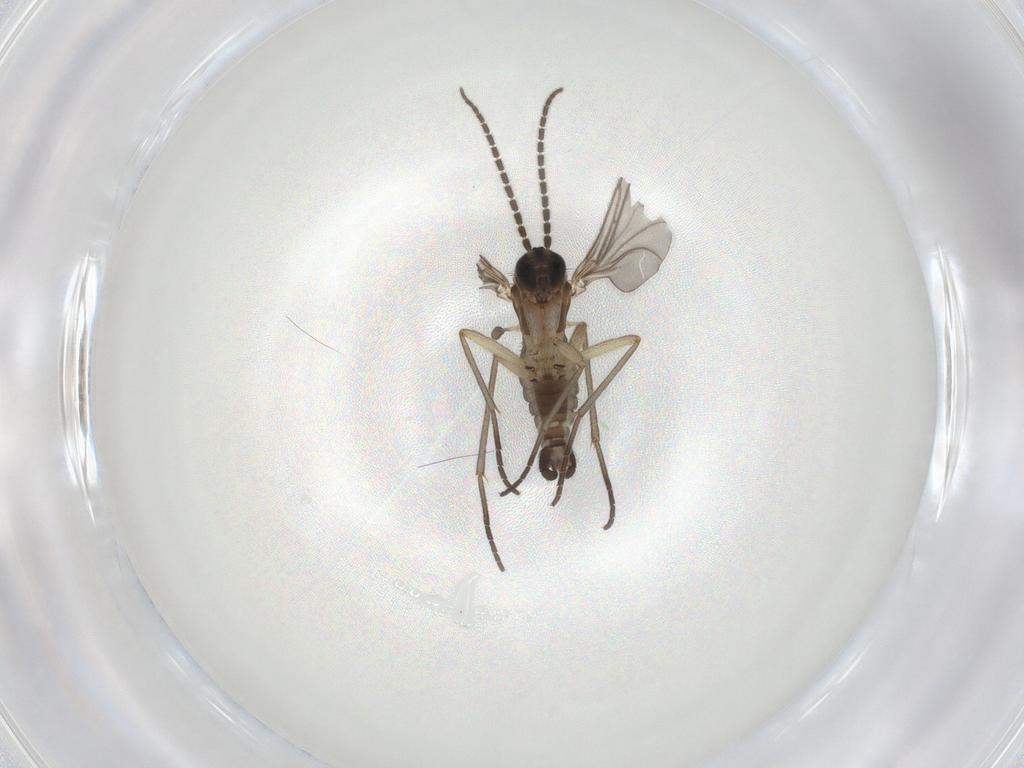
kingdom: Animalia
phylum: Arthropoda
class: Insecta
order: Diptera
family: Sciaridae
